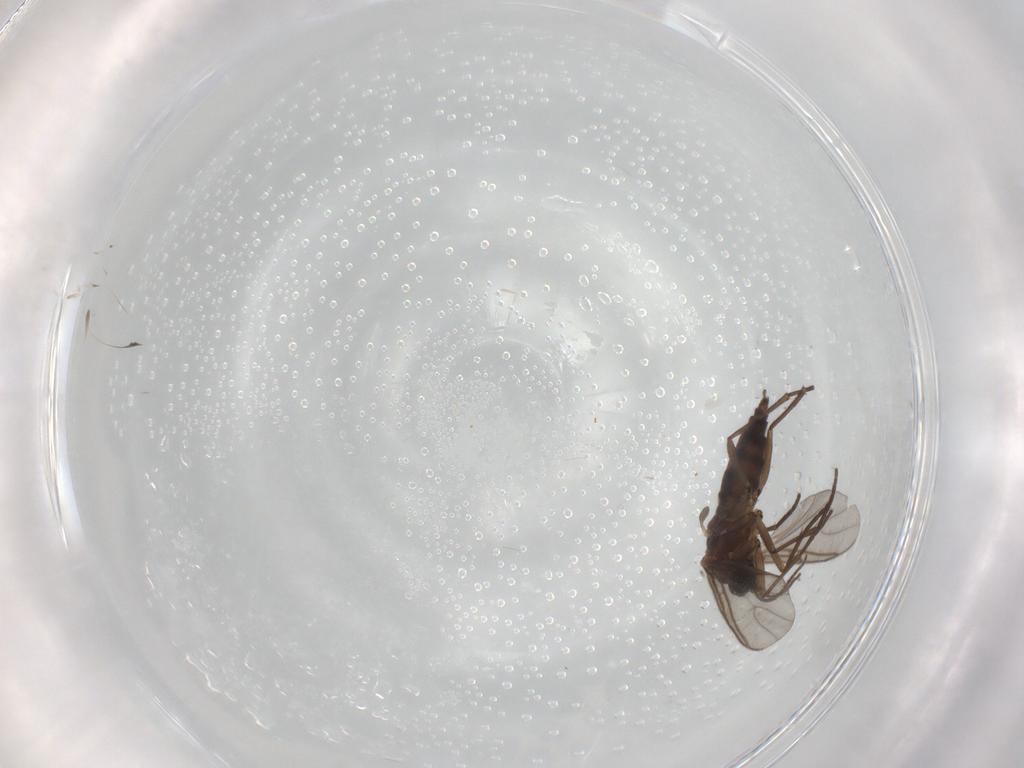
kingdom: Animalia
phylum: Arthropoda
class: Insecta
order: Diptera
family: Sciaridae
